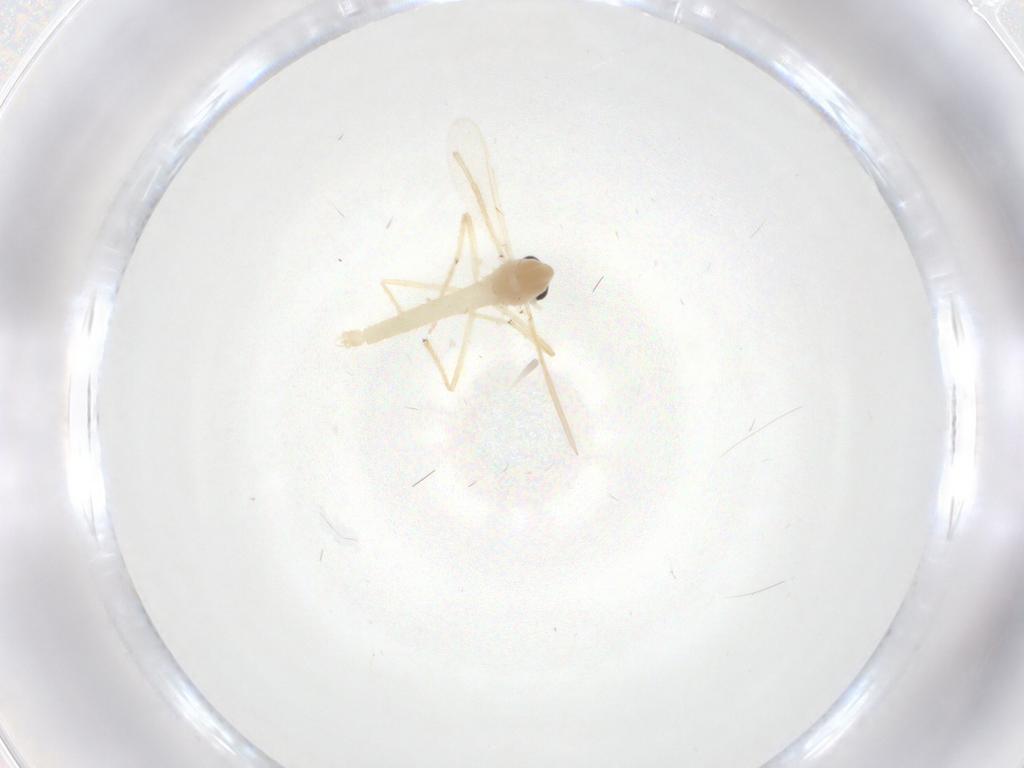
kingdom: Animalia
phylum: Arthropoda
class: Insecta
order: Diptera
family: Chironomidae
